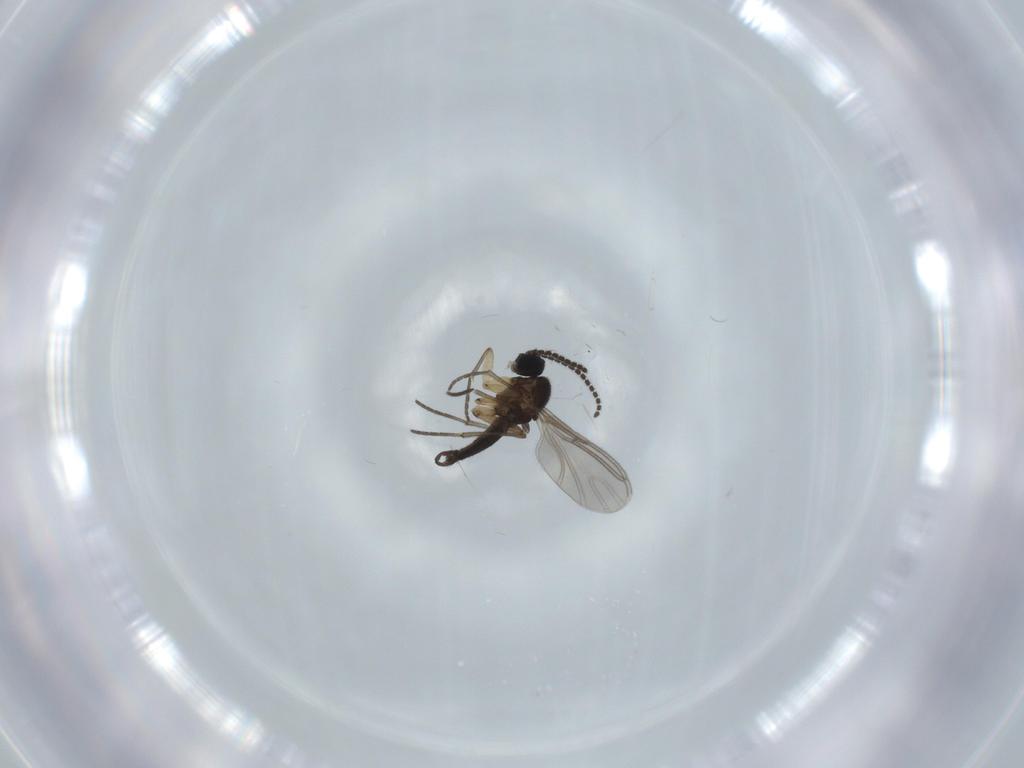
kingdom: Animalia
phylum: Arthropoda
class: Insecta
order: Diptera
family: Sciaridae
